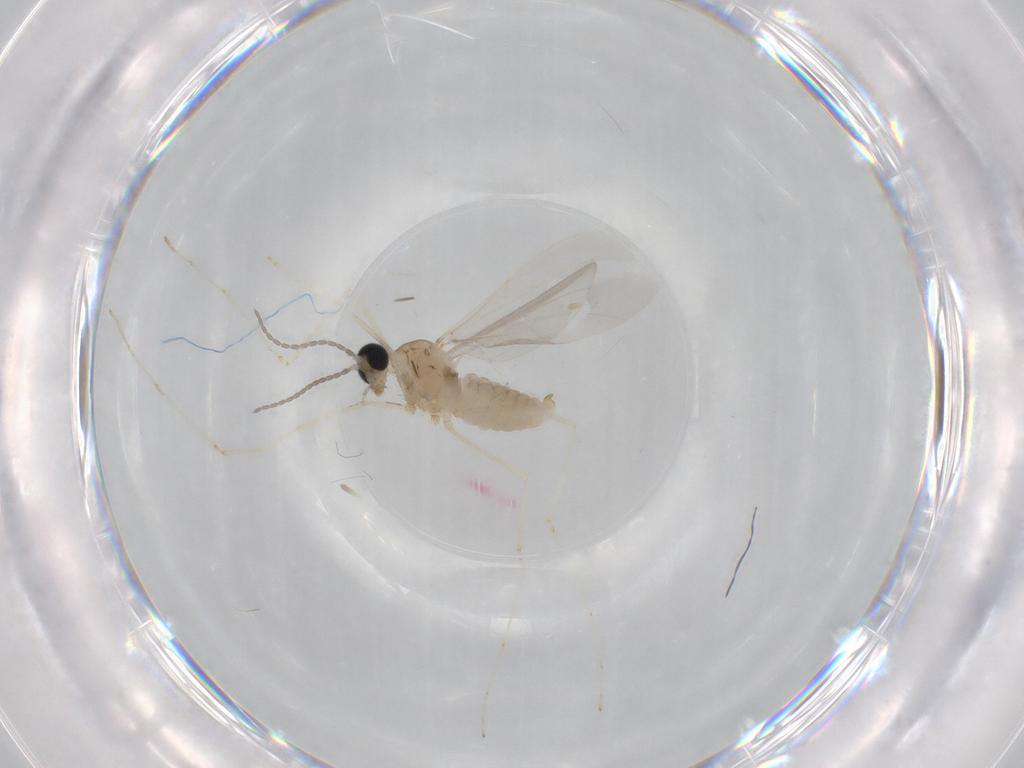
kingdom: Animalia
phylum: Arthropoda
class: Insecta
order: Diptera
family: Cecidomyiidae
